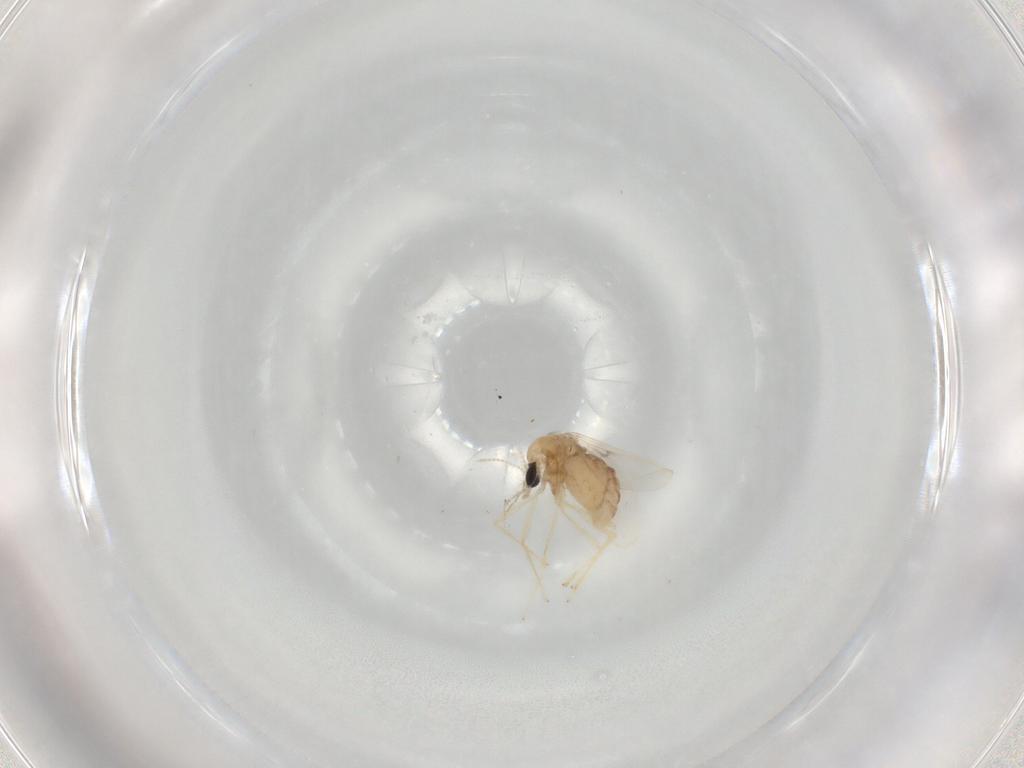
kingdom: Animalia
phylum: Arthropoda
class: Insecta
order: Diptera
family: Chironomidae
